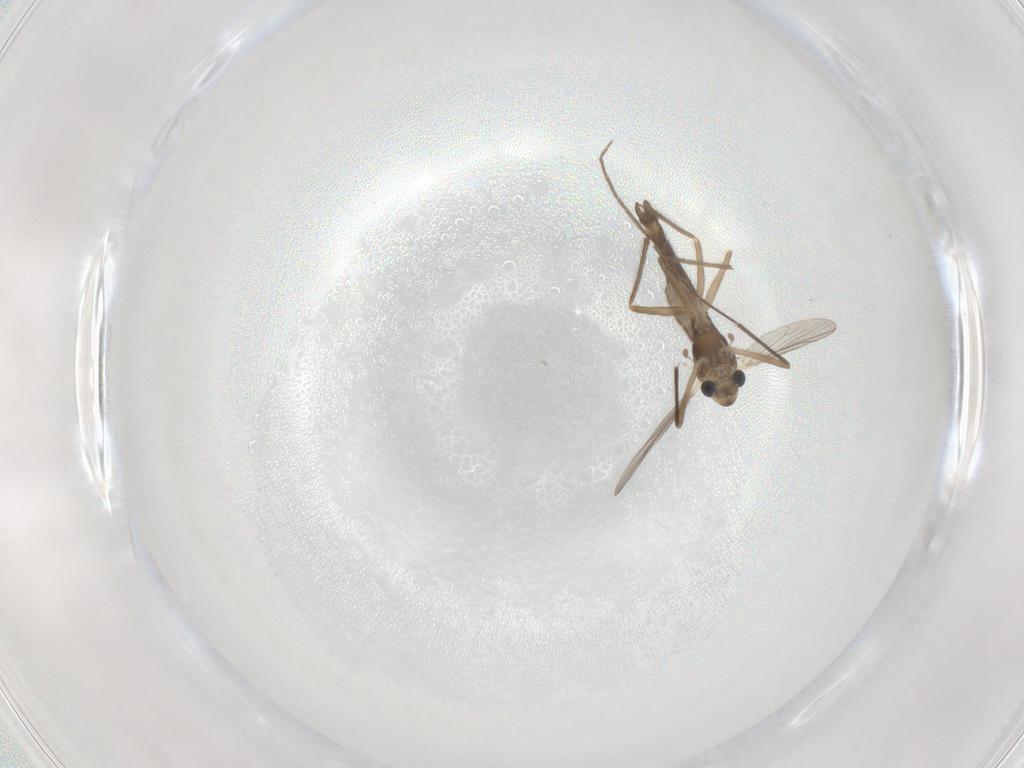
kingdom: Animalia
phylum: Arthropoda
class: Insecta
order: Diptera
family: Chironomidae
